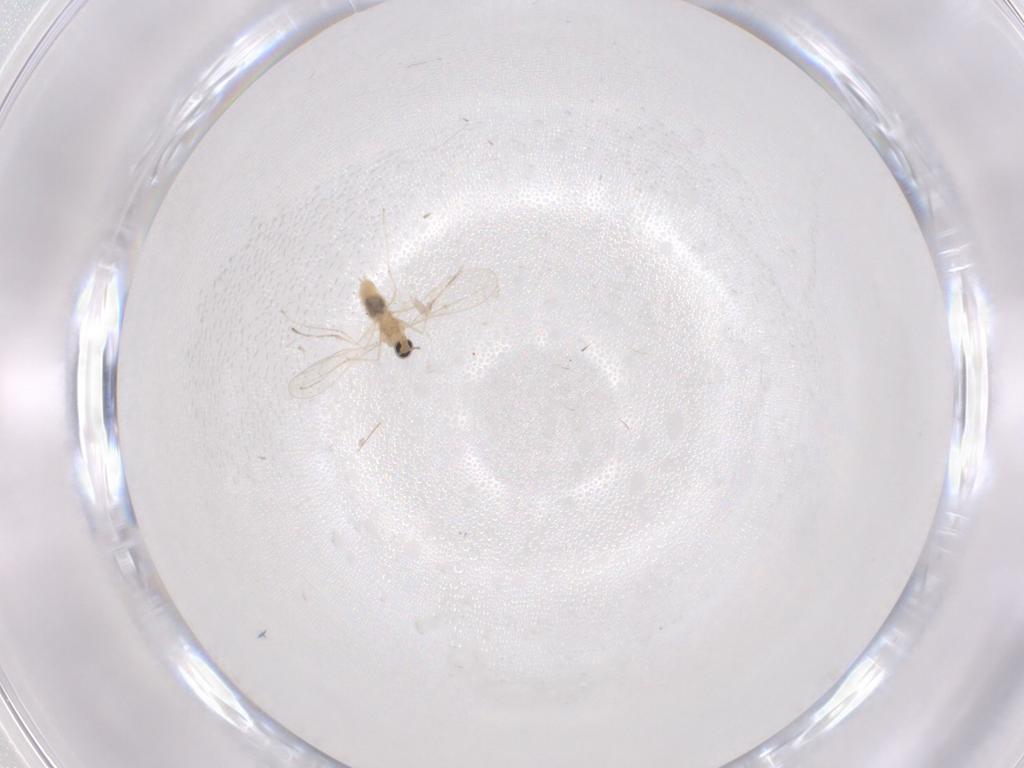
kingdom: Animalia
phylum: Arthropoda
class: Insecta
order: Diptera
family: Cecidomyiidae
